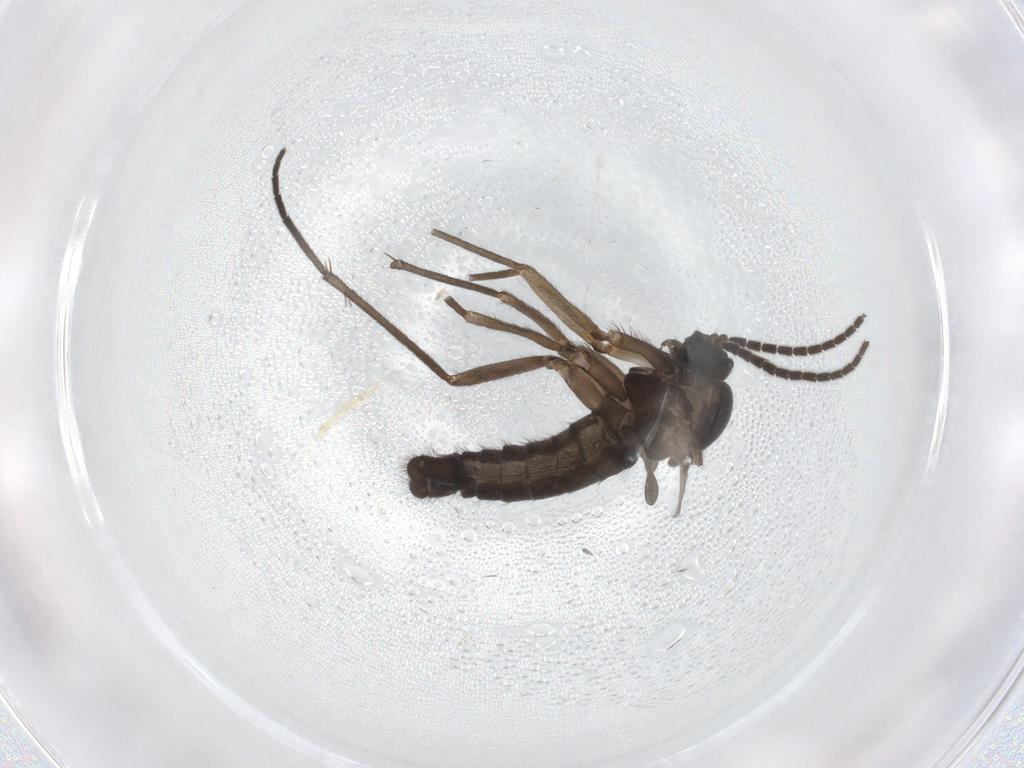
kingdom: Animalia
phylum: Arthropoda
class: Insecta
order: Diptera
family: Sciaridae
